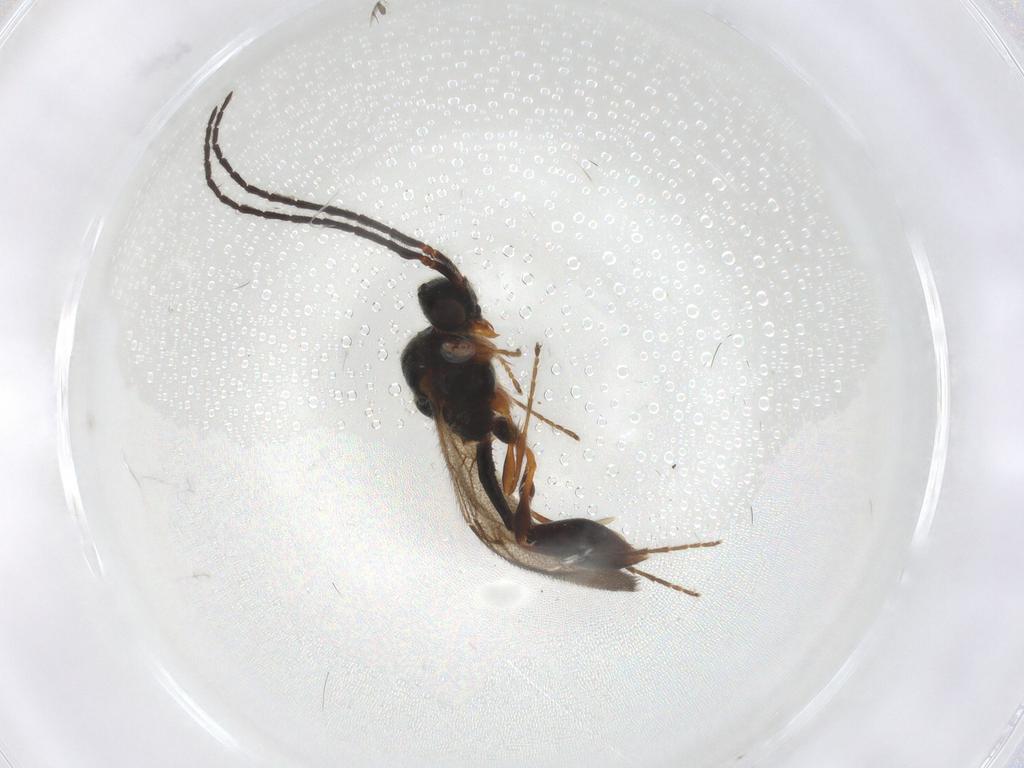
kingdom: Animalia
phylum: Arthropoda
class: Insecta
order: Hymenoptera
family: Diapriidae
